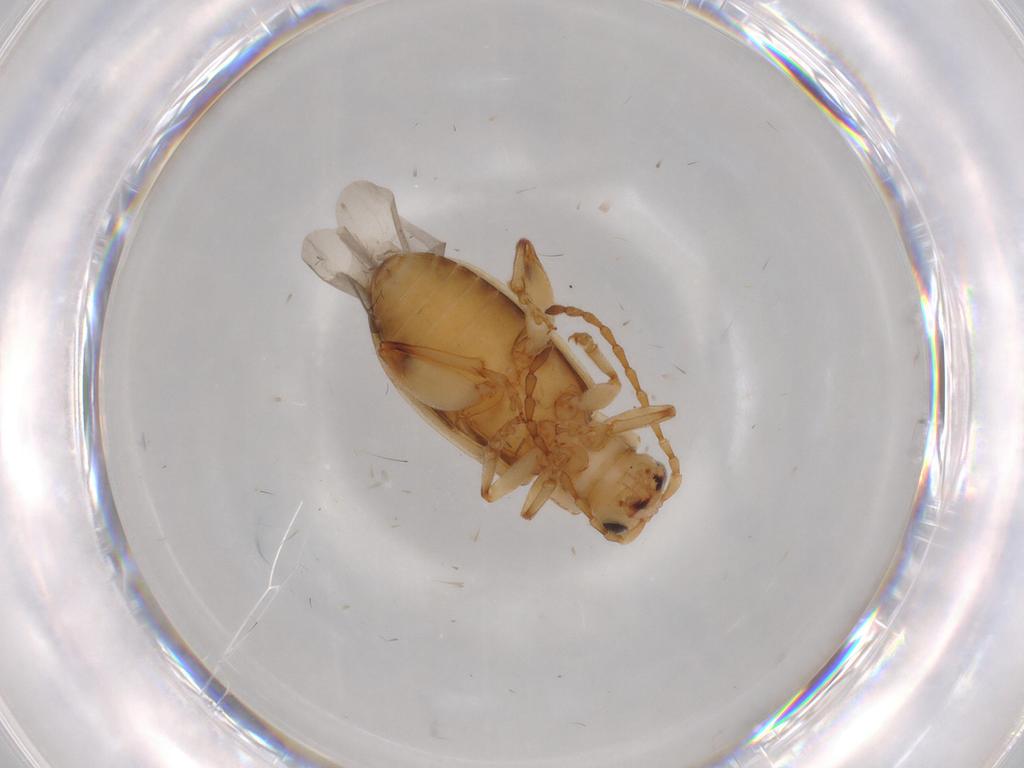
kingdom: Animalia
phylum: Arthropoda
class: Insecta
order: Coleoptera
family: Chrysomelidae
